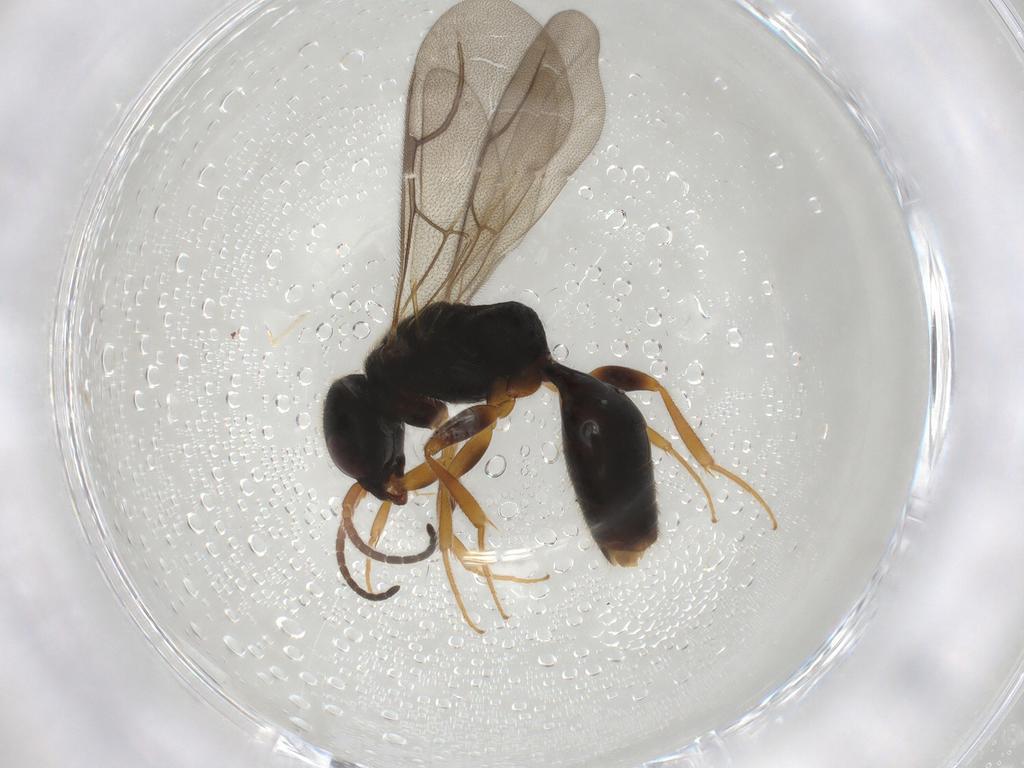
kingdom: Animalia
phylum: Arthropoda
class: Insecta
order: Hymenoptera
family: Bethylidae
